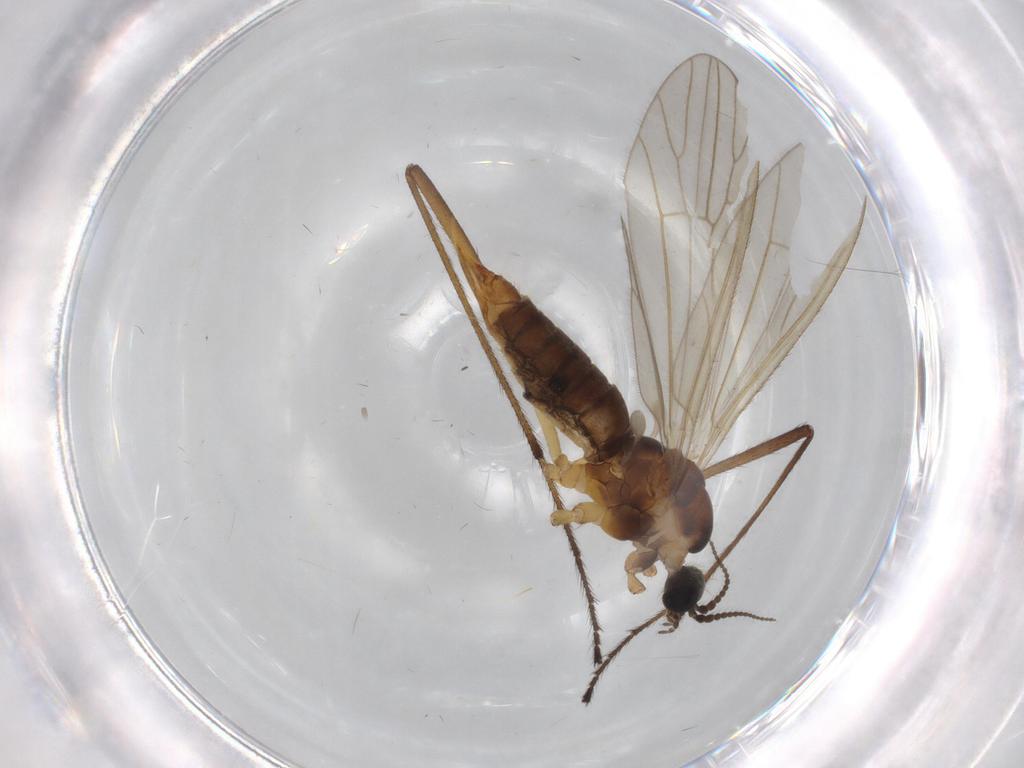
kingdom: Animalia
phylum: Arthropoda
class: Insecta
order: Diptera
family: Agromyzidae
